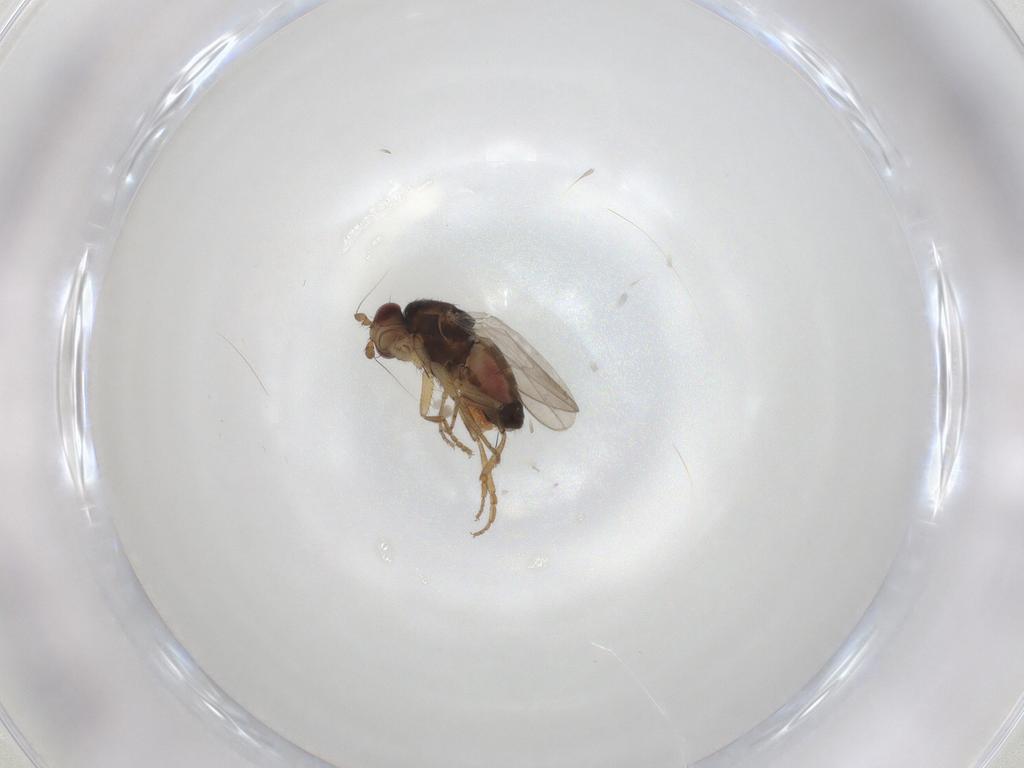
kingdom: Animalia
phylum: Arthropoda
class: Insecta
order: Diptera
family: Sphaeroceridae
